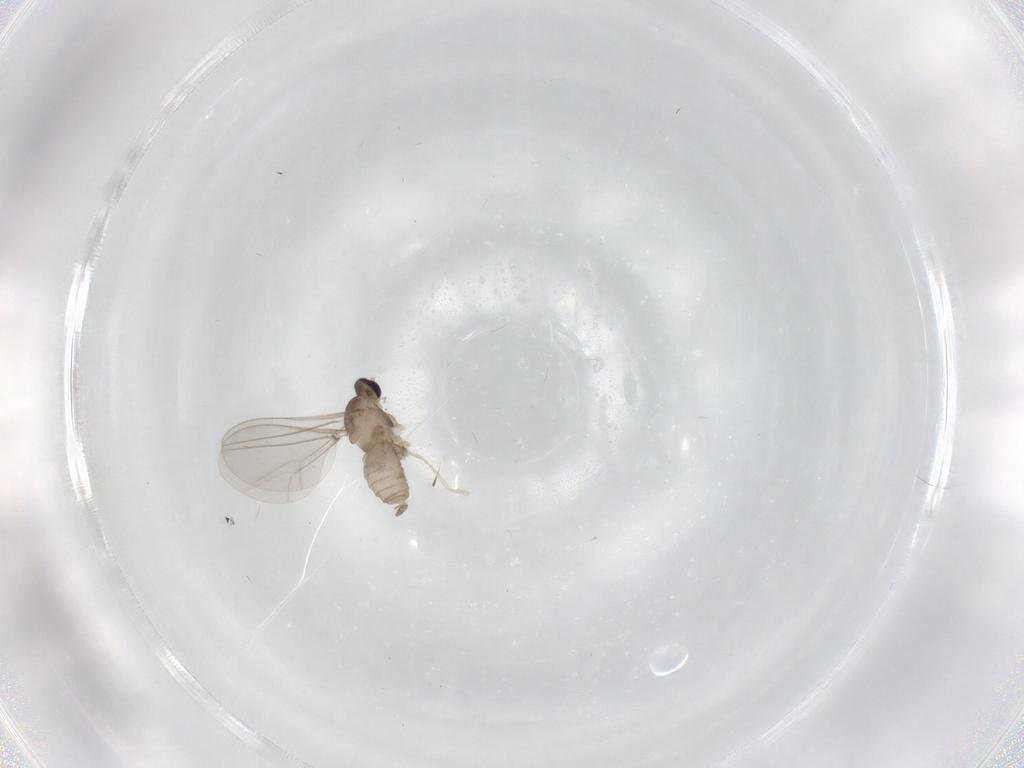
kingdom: Animalia
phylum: Arthropoda
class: Insecta
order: Diptera
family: Cecidomyiidae
